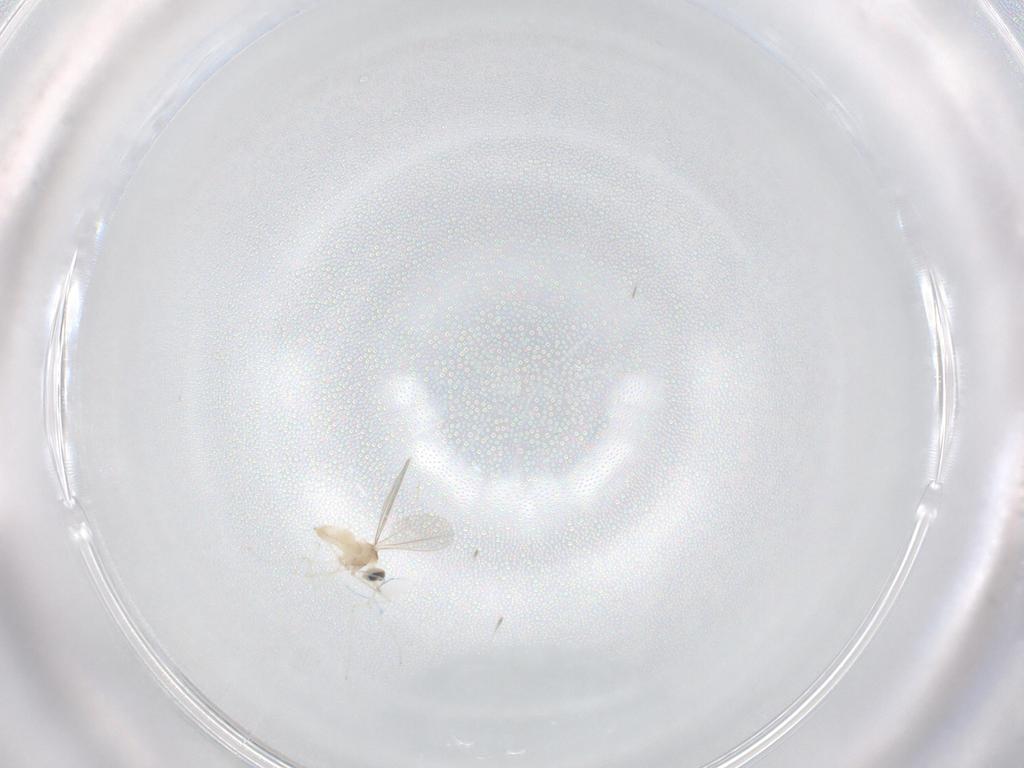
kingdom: Animalia
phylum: Arthropoda
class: Insecta
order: Diptera
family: Cecidomyiidae
